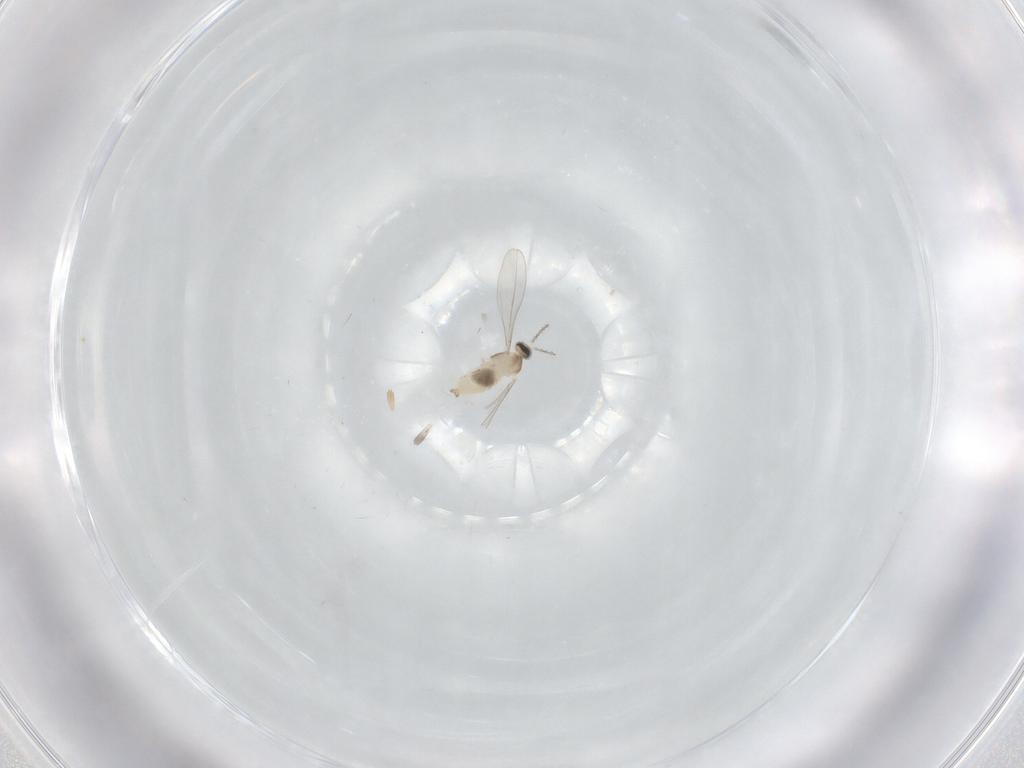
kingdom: Animalia
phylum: Arthropoda
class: Insecta
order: Diptera
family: Cecidomyiidae
